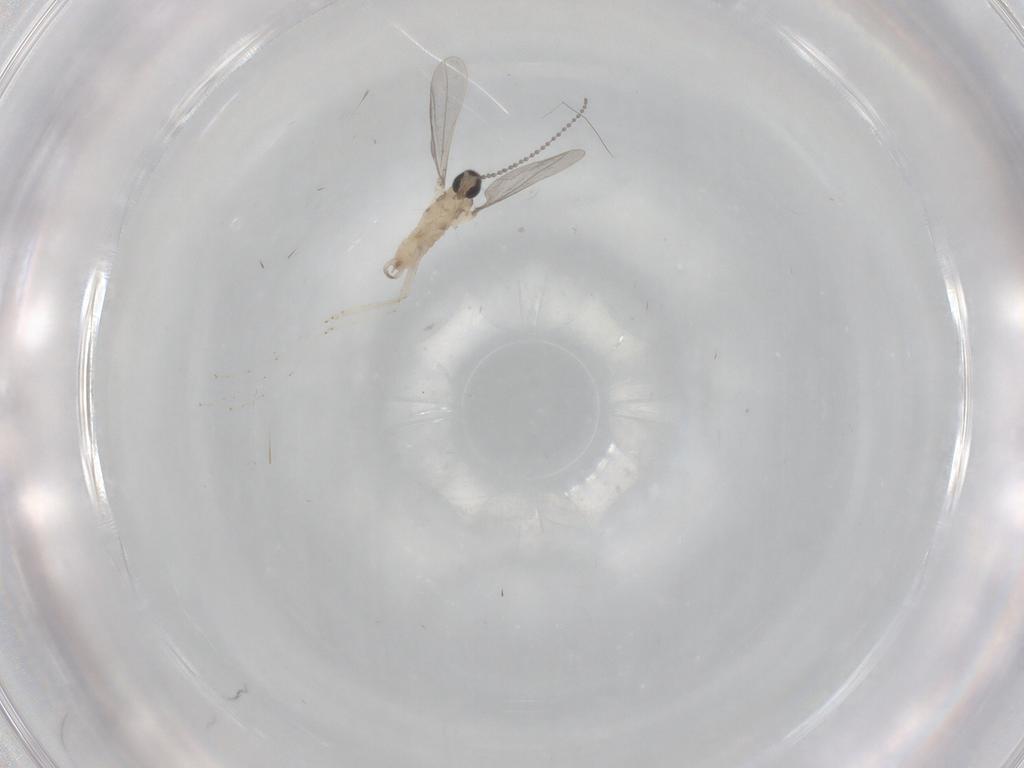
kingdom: Animalia
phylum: Arthropoda
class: Insecta
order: Diptera
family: Cecidomyiidae
